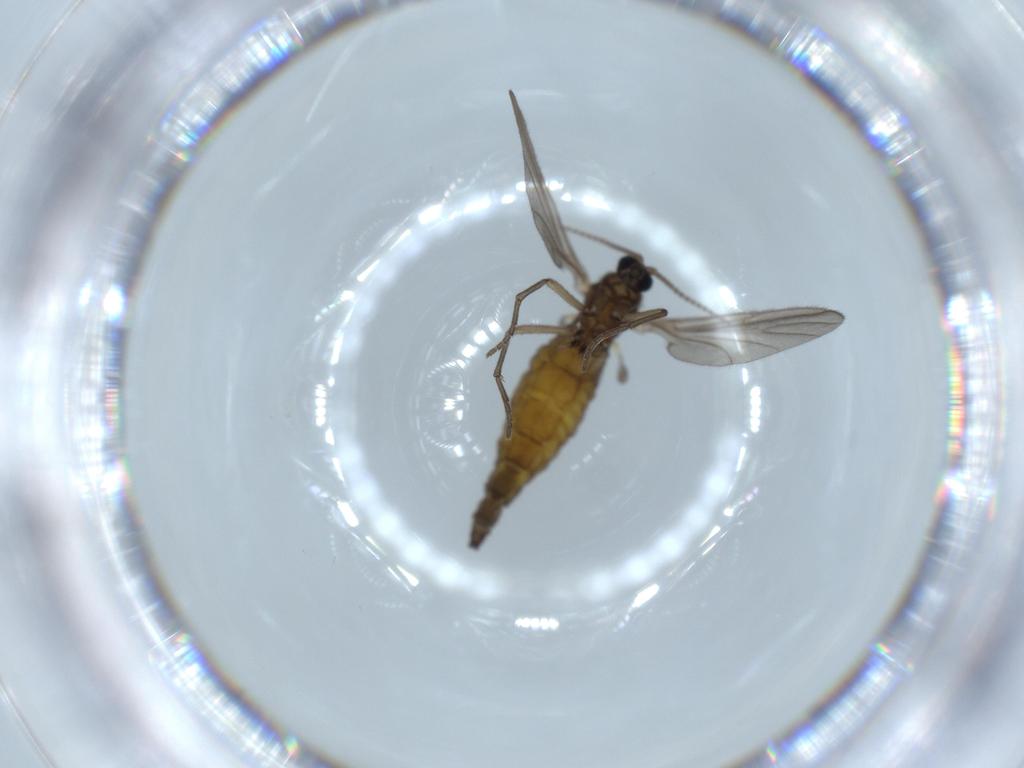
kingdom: Animalia
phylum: Arthropoda
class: Insecta
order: Diptera
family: Sciaridae
